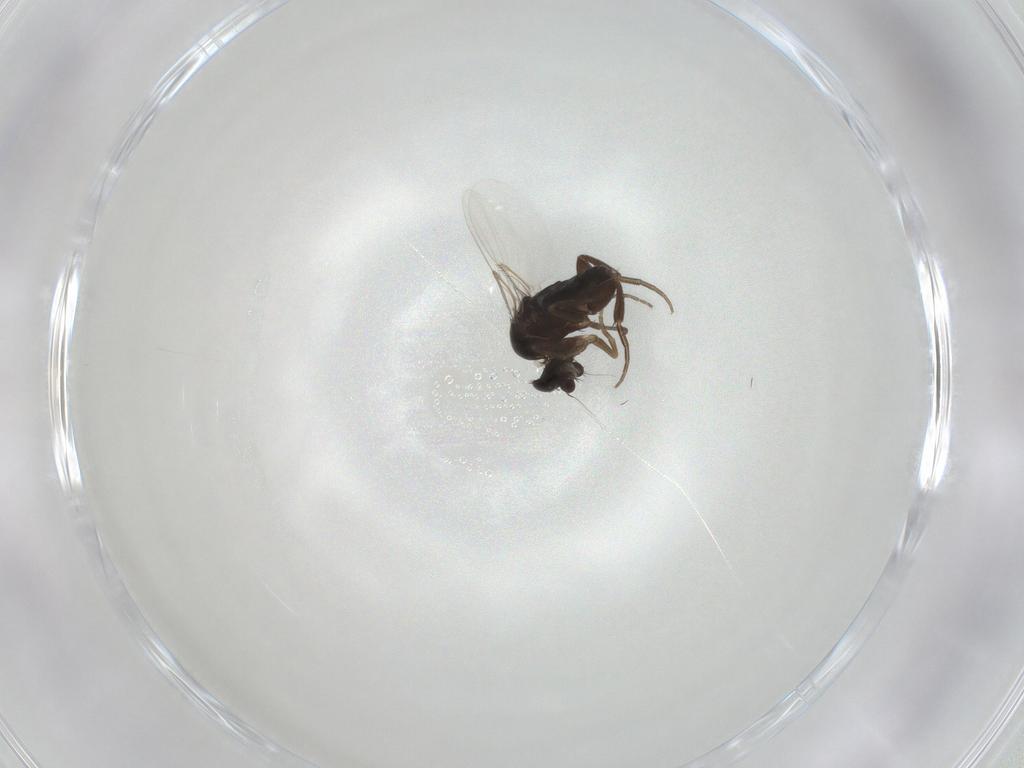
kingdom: Animalia
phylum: Arthropoda
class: Insecta
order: Diptera
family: Phoridae
